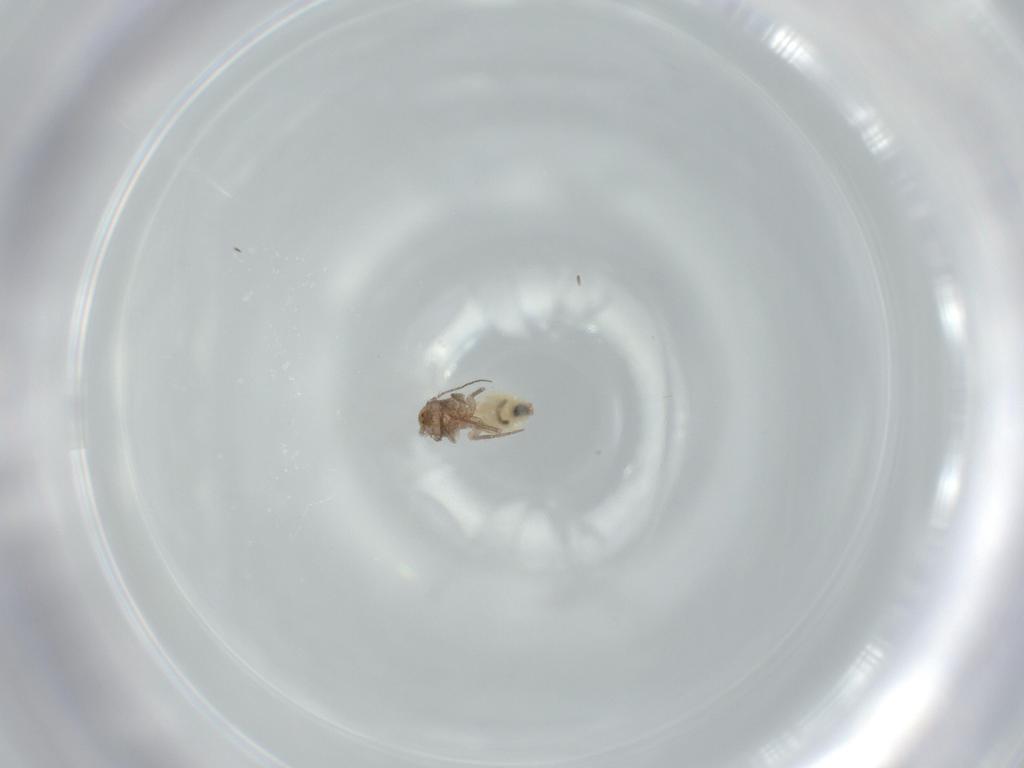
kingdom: Animalia
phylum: Arthropoda
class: Insecta
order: Psocodea
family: Lepidopsocidae
